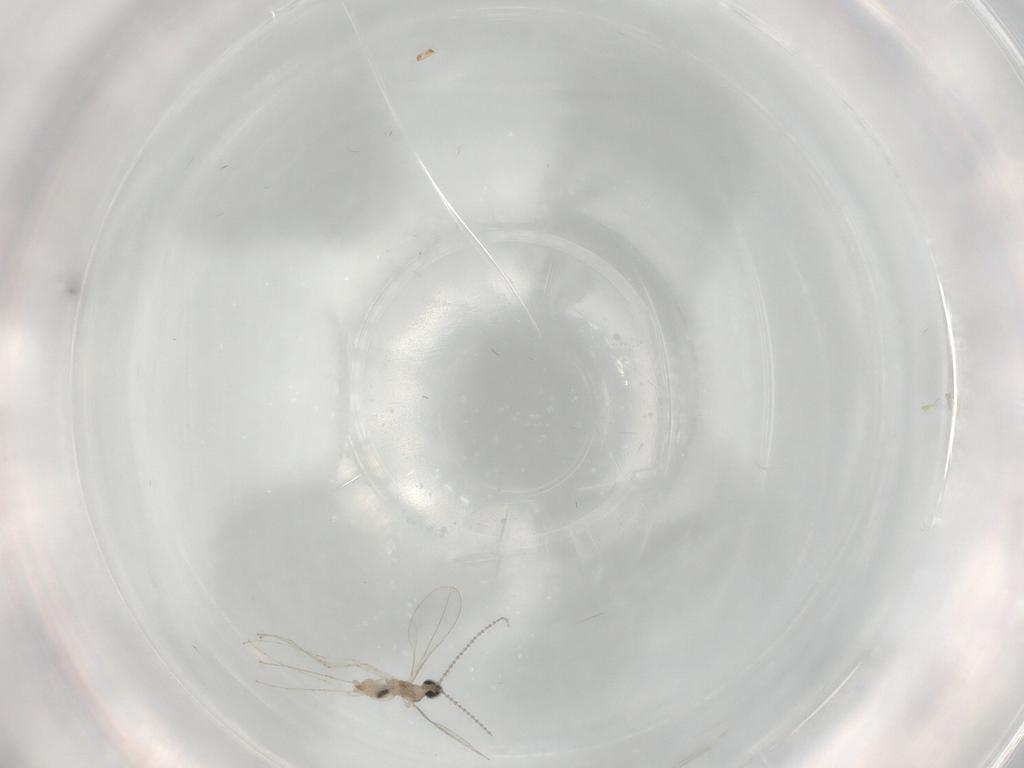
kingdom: Animalia
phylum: Arthropoda
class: Insecta
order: Diptera
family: Cecidomyiidae
